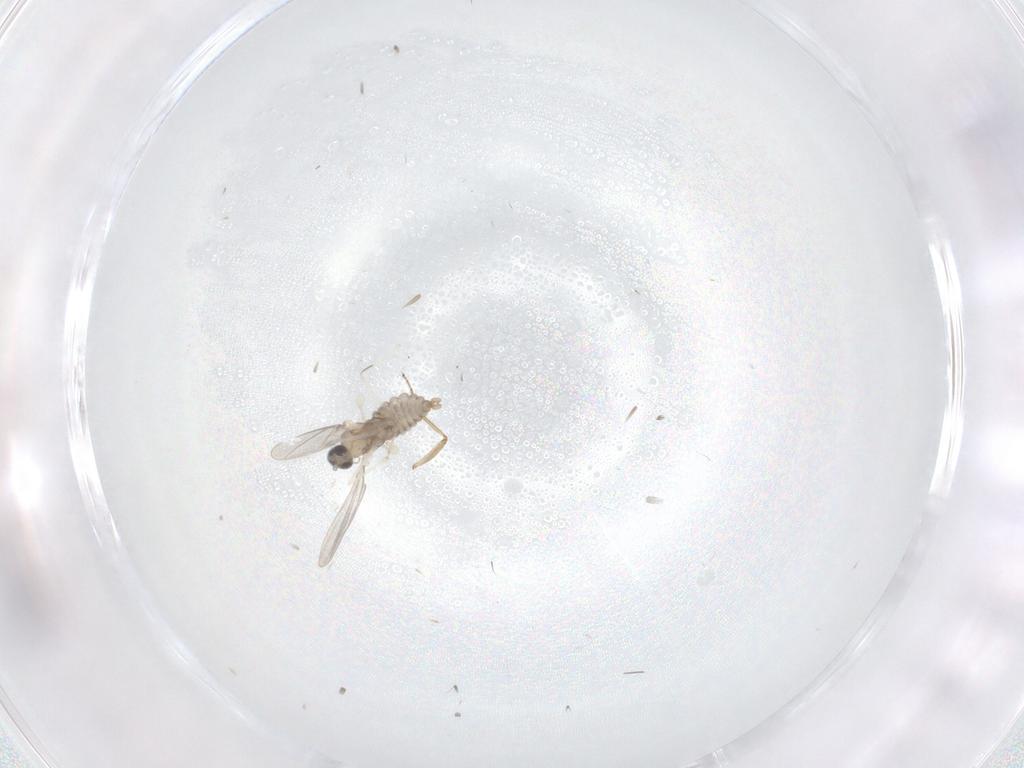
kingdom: Animalia
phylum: Arthropoda
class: Insecta
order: Diptera
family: Cecidomyiidae
